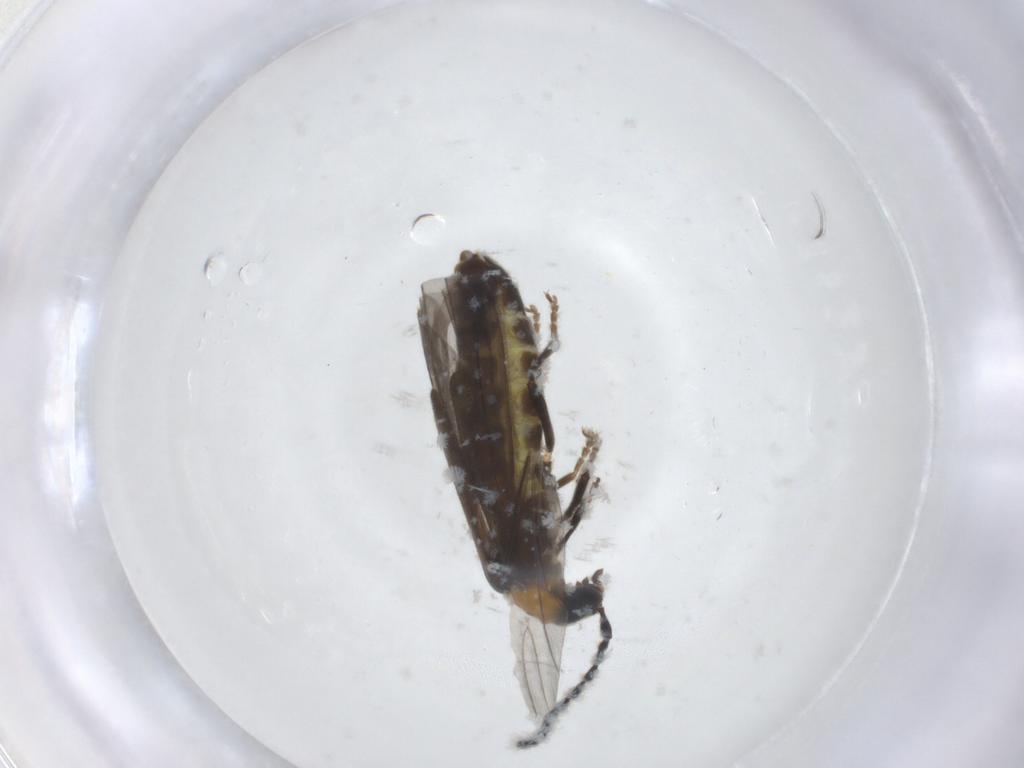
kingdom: Animalia
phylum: Arthropoda
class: Insecta
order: Coleoptera
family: Cantharidae
